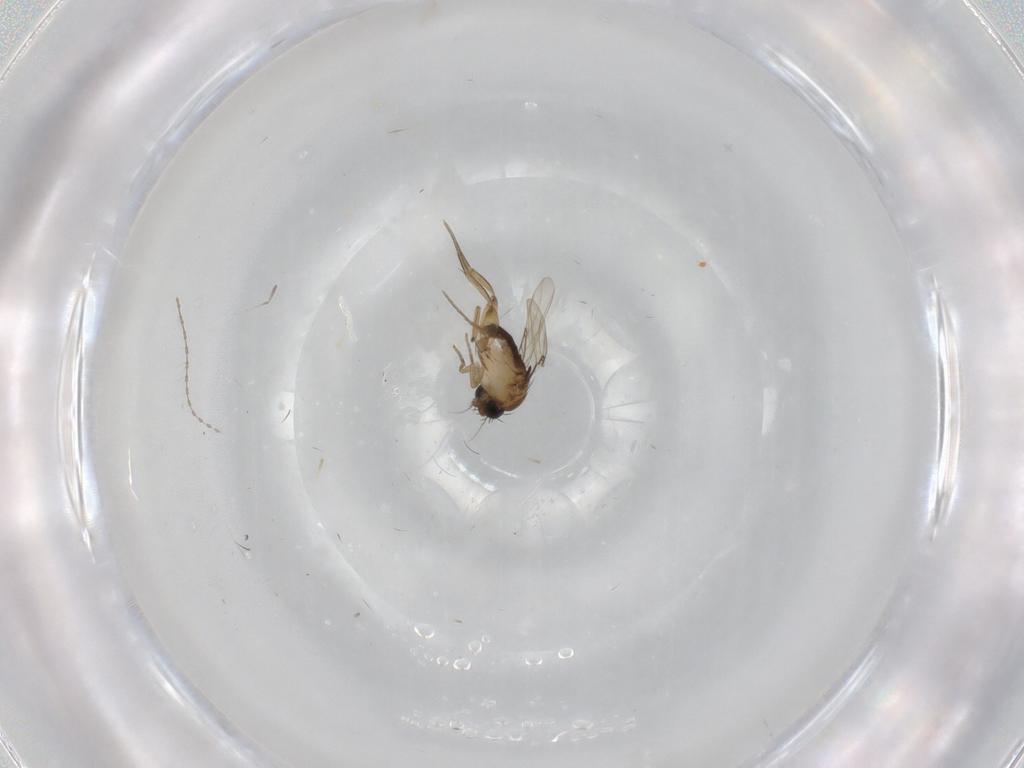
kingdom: Animalia
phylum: Arthropoda
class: Insecta
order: Diptera
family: Phoridae
